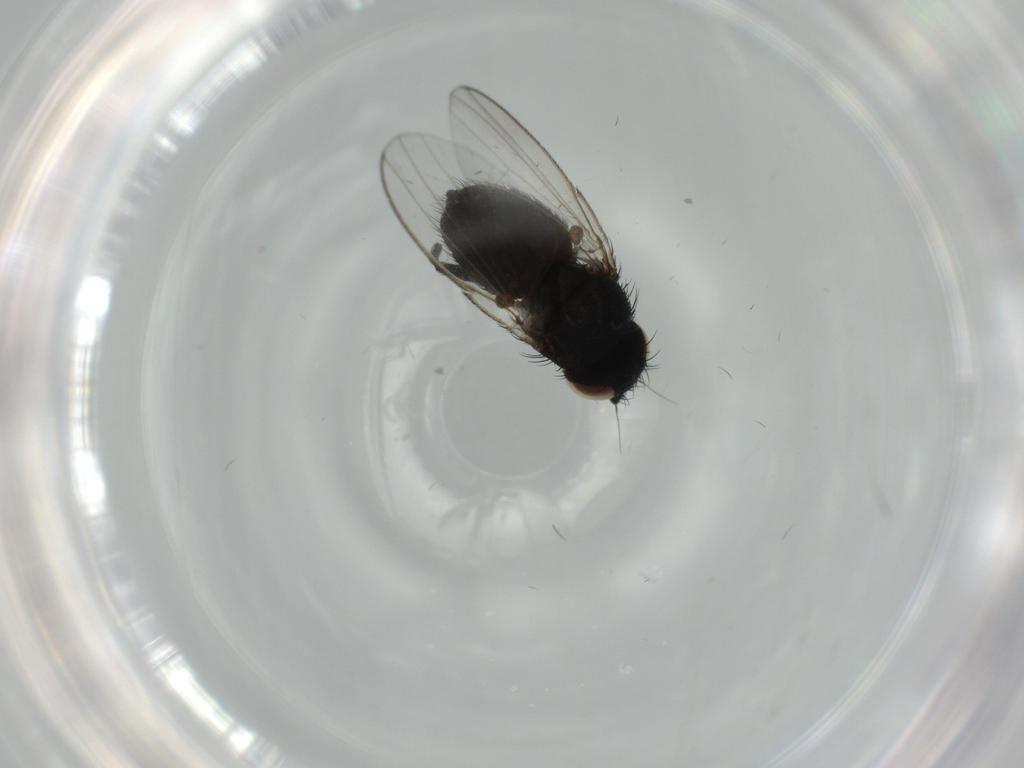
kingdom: Animalia
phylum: Arthropoda
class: Insecta
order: Diptera
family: Milichiidae
